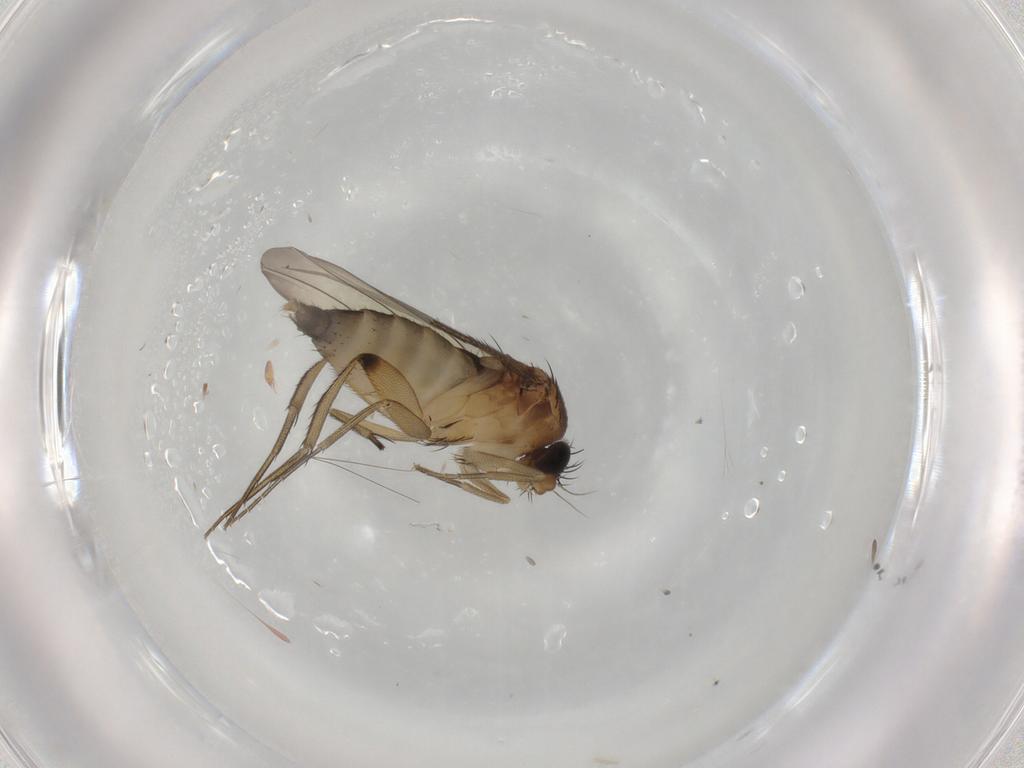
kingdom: Animalia
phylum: Arthropoda
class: Insecta
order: Diptera
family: Phoridae
